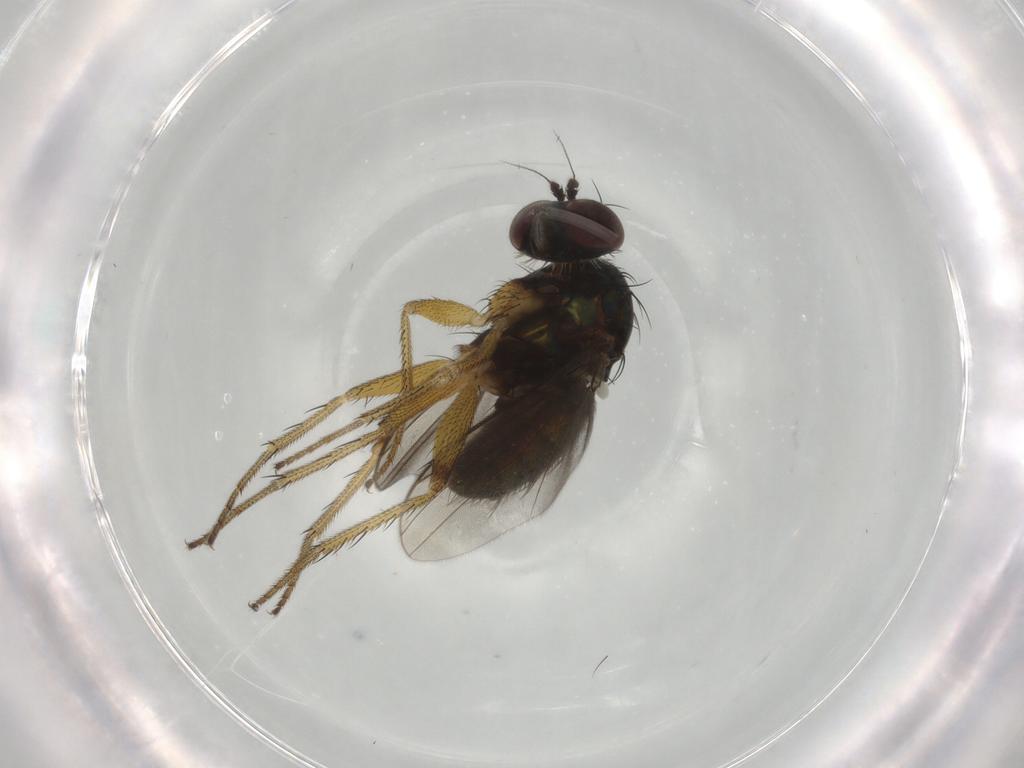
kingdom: Animalia
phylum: Arthropoda
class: Insecta
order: Diptera
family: Dolichopodidae
